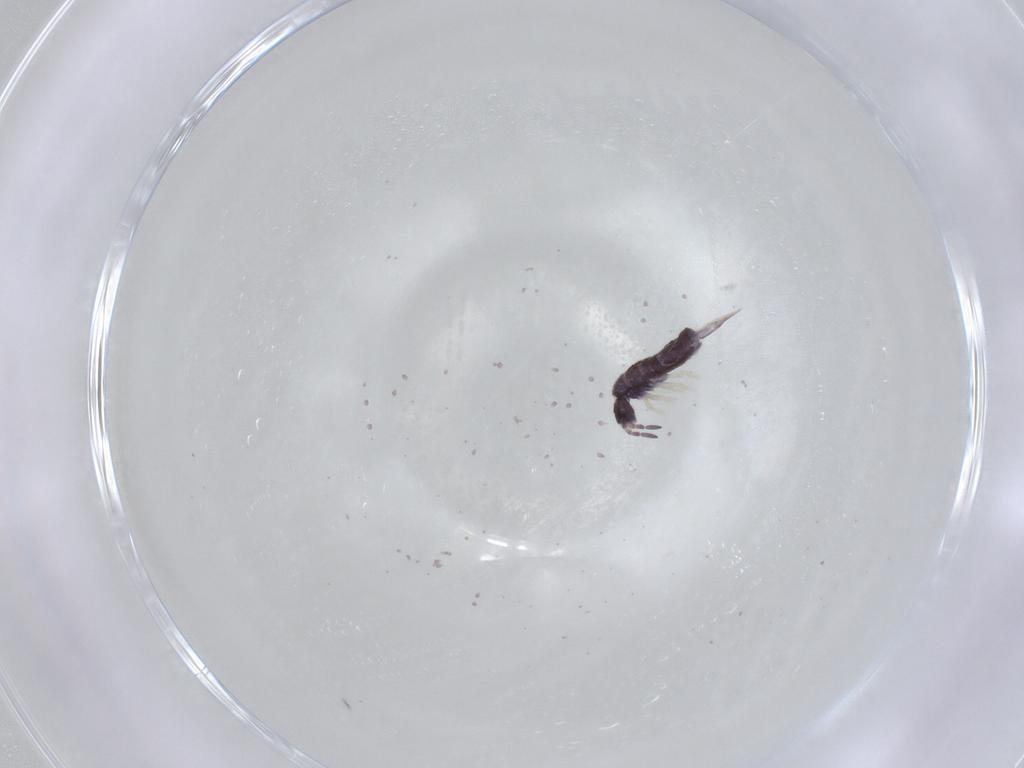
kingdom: Animalia
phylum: Arthropoda
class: Collembola
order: Entomobryomorpha
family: Entomobryidae
